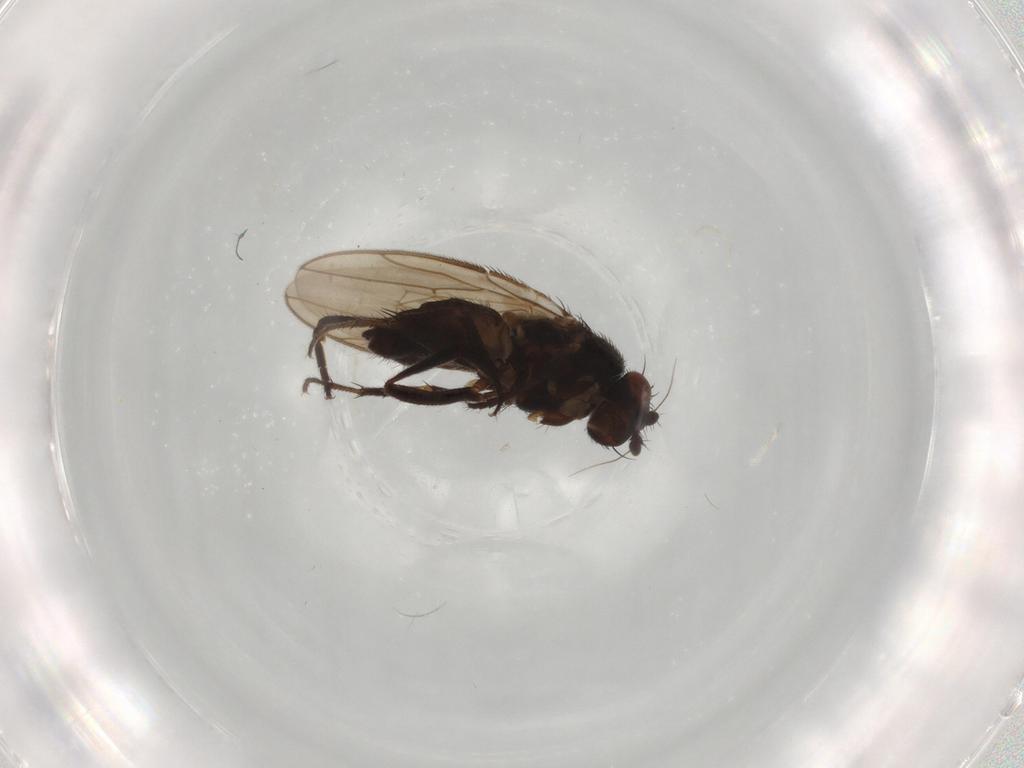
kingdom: Animalia
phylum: Arthropoda
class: Insecta
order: Diptera
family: Sphaeroceridae
